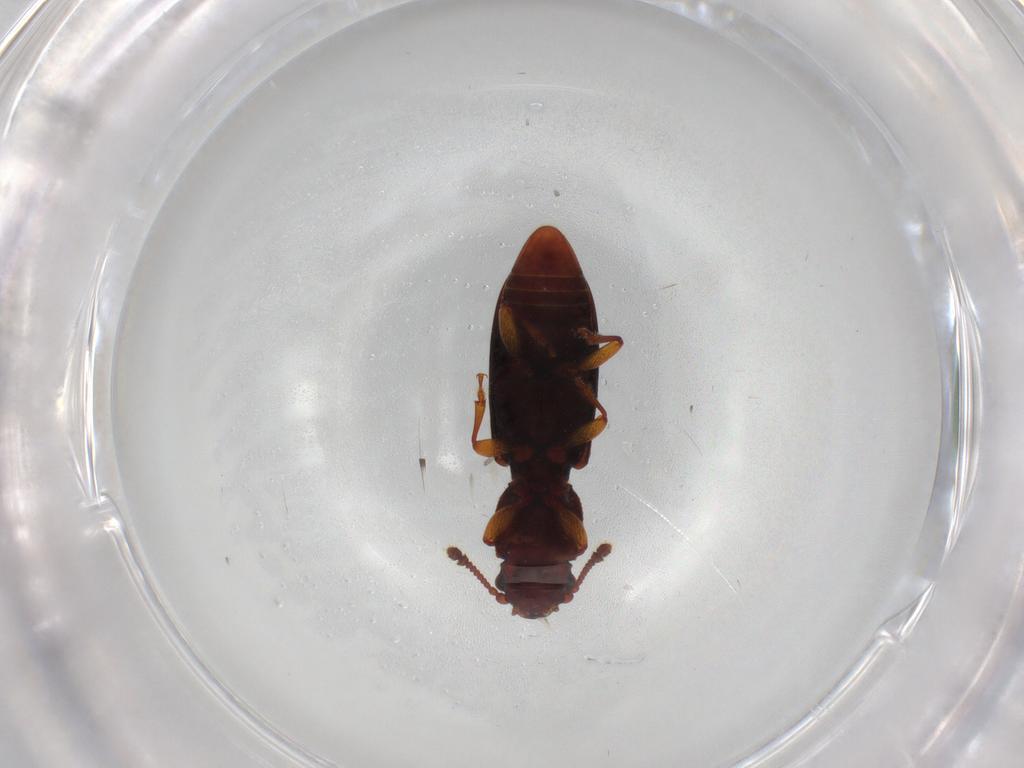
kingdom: Animalia
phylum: Arthropoda
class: Insecta
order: Coleoptera
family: Monotomidae
